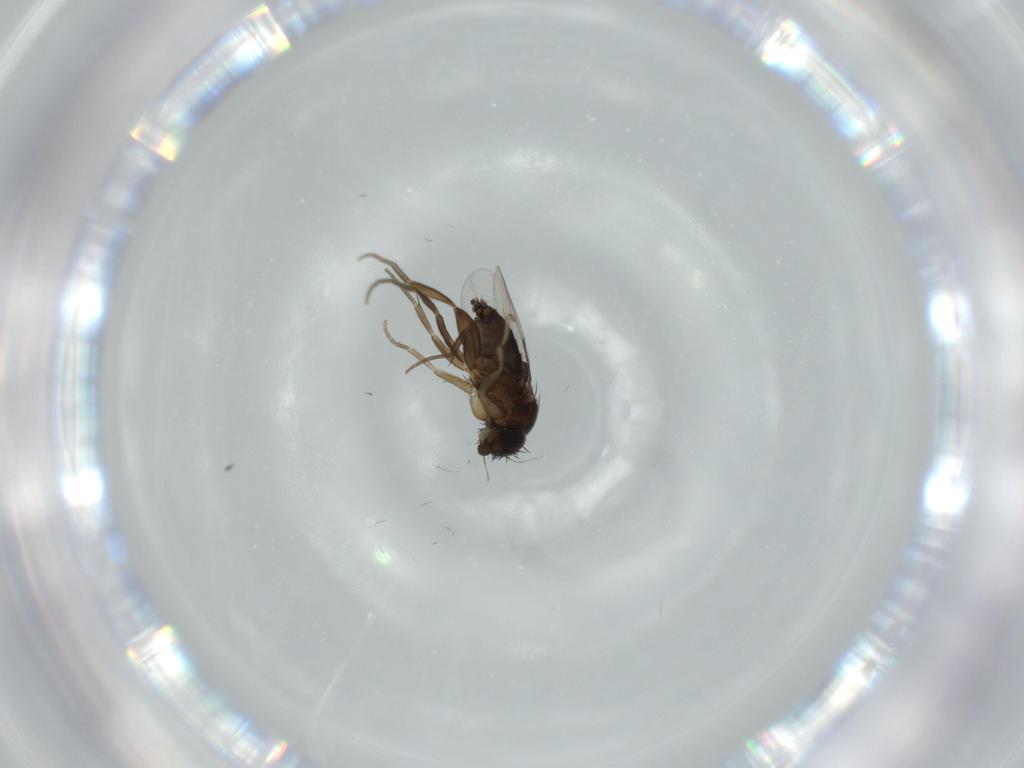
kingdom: Animalia
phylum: Arthropoda
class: Insecta
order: Diptera
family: Phoridae
